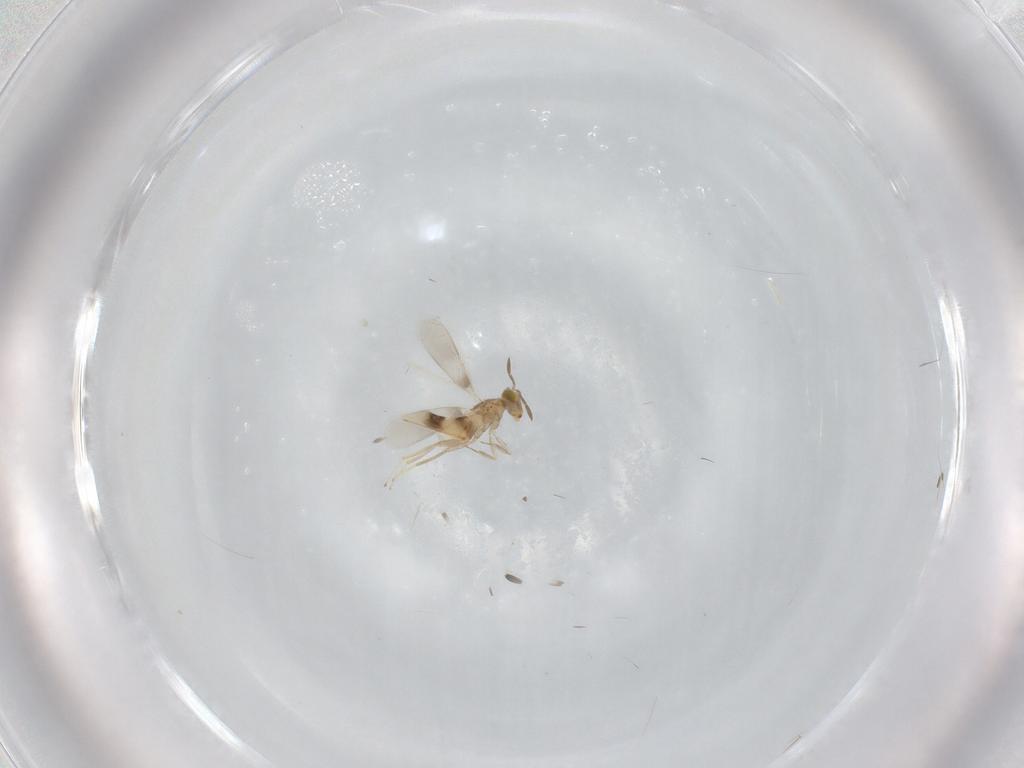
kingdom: Animalia
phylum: Arthropoda
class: Insecta
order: Hymenoptera
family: Aphelinidae
